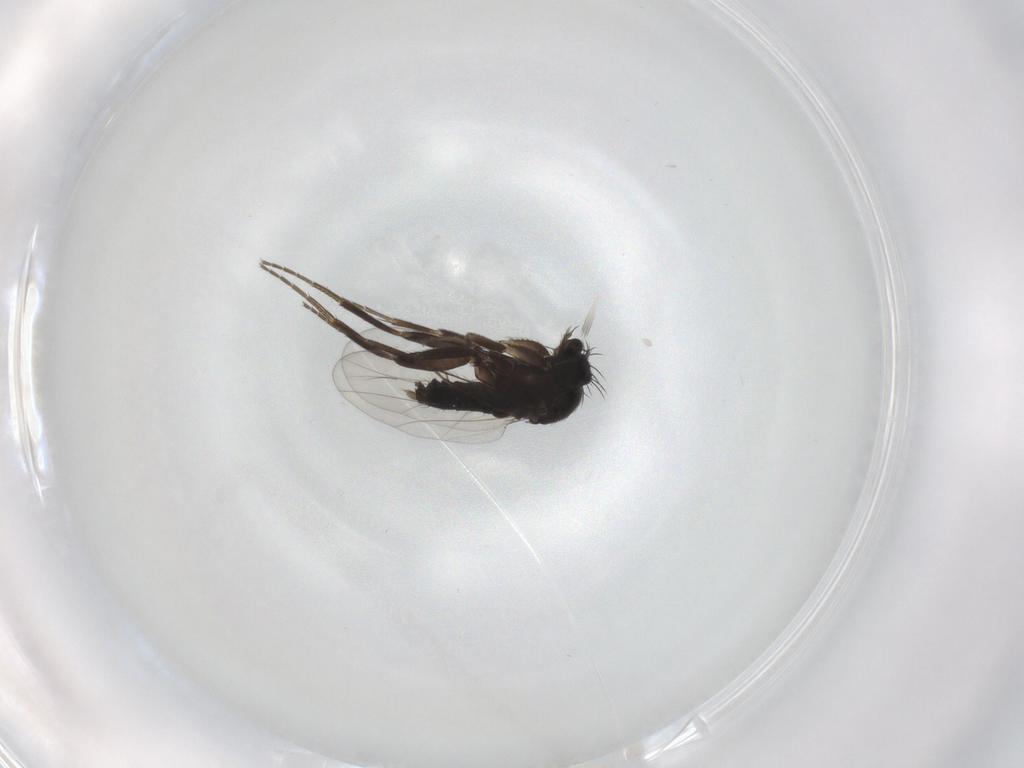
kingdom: Animalia
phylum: Arthropoda
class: Insecta
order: Diptera
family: Phoridae
